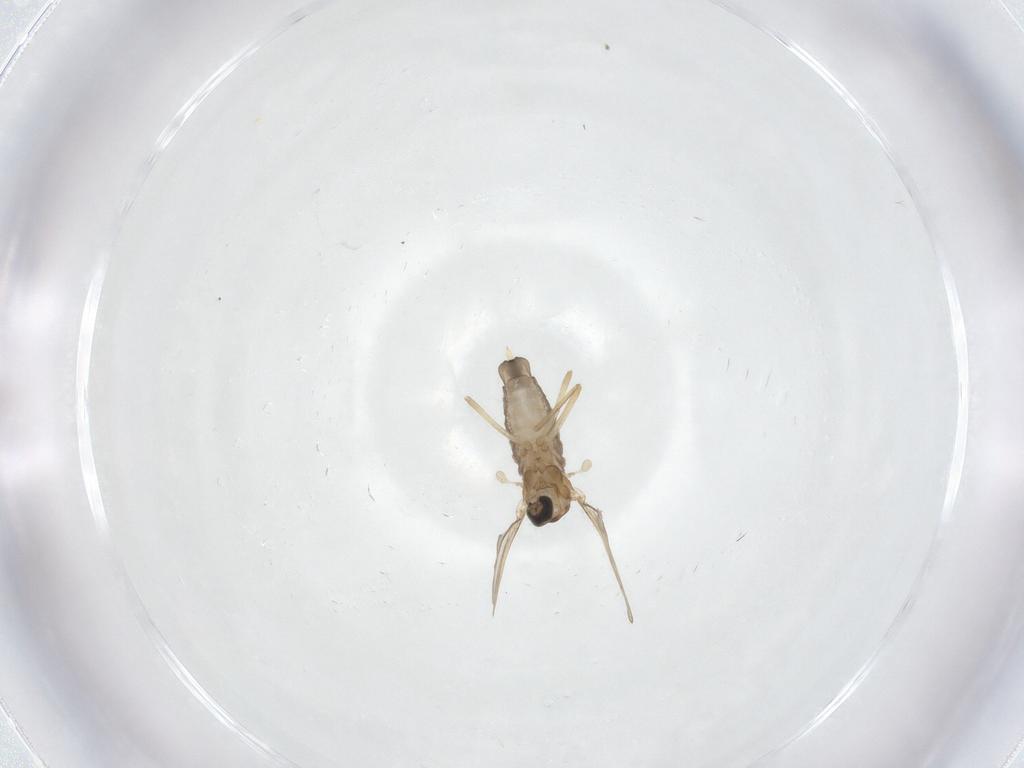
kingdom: Animalia
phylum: Arthropoda
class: Insecta
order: Diptera
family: Cecidomyiidae
